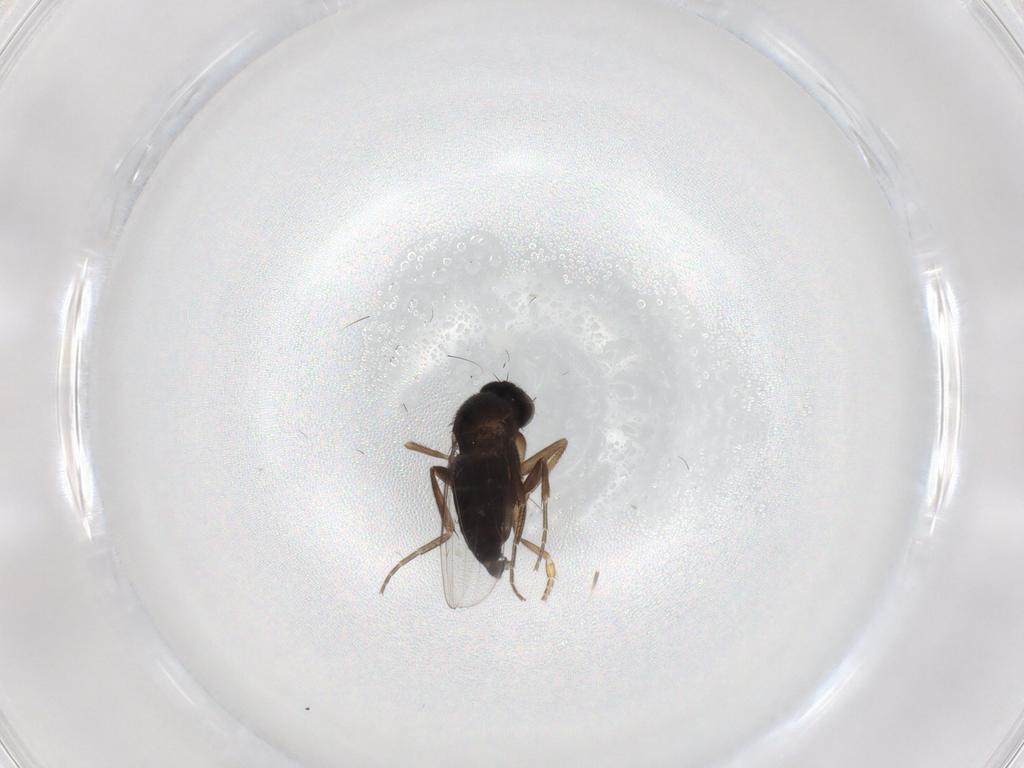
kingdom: Animalia
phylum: Arthropoda
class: Insecta
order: Diptera
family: Phoridae
